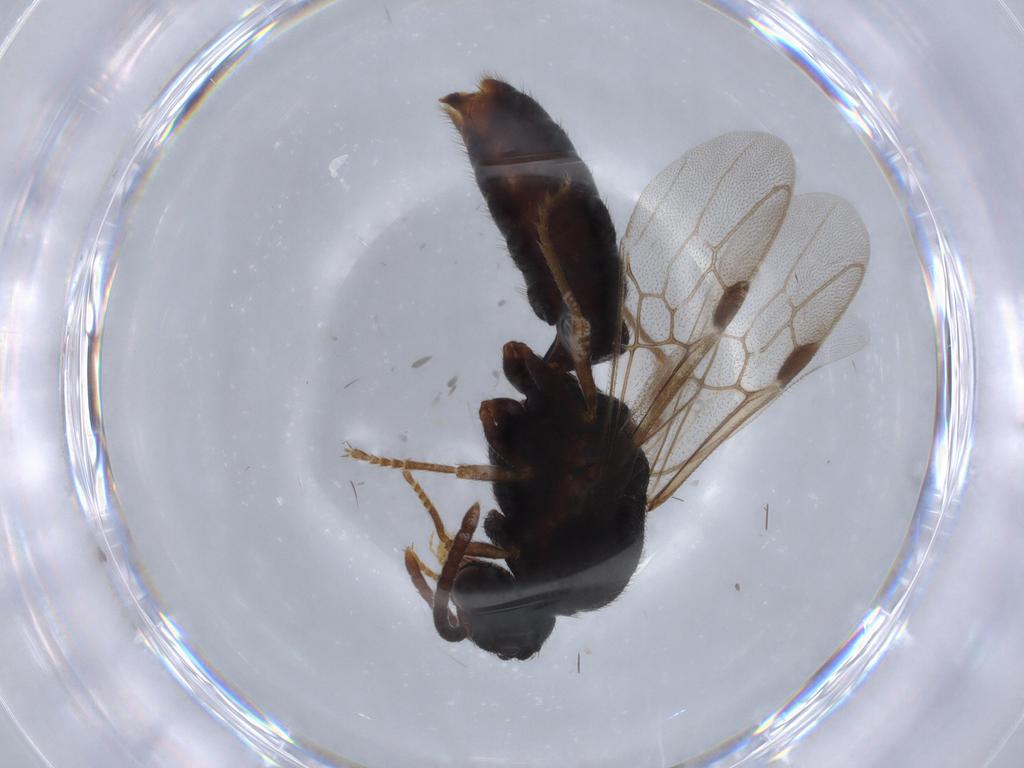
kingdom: Animalia
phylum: Arthropoda
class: Insecta
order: Hymenoptera
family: Formicidae
